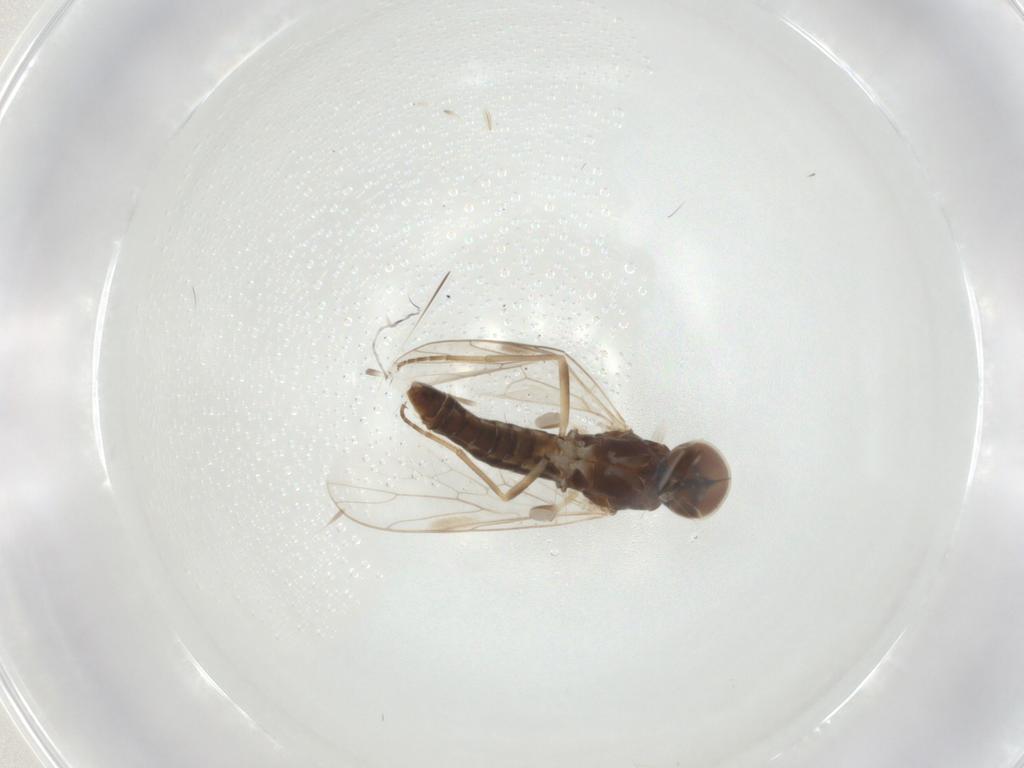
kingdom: Animalia
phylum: Arthropoda
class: Insecta
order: Diptera
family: Scenopinidae
